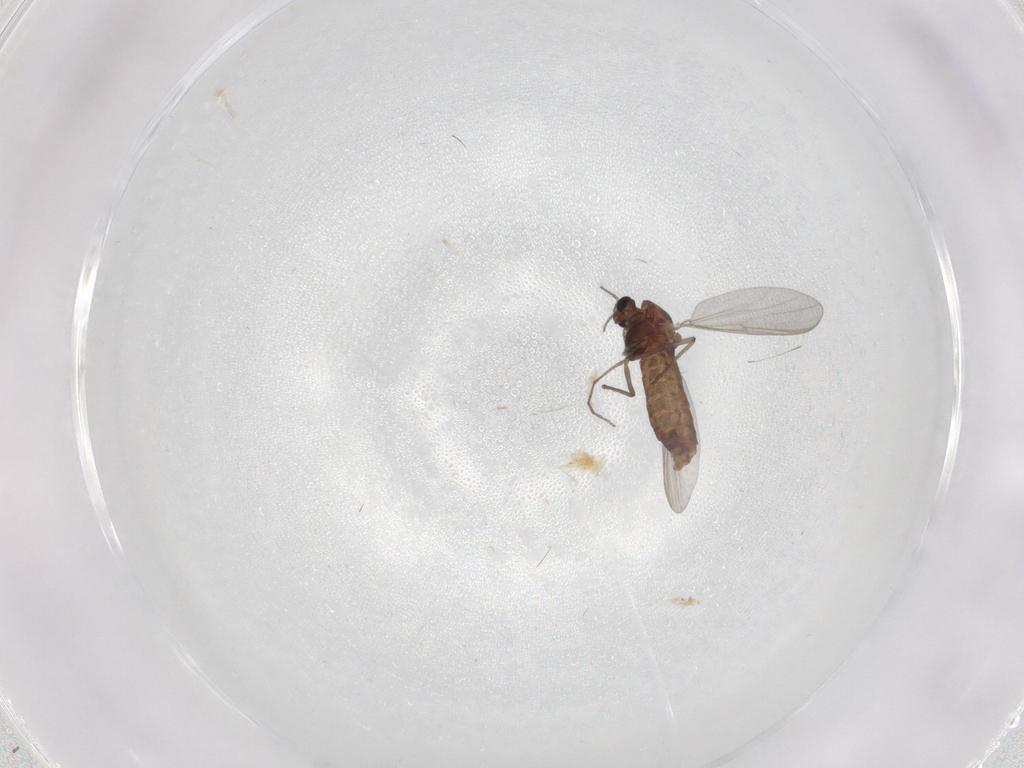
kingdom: Animalia
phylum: Arthropoda
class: Insecta
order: Diptera
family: Chironomidae
